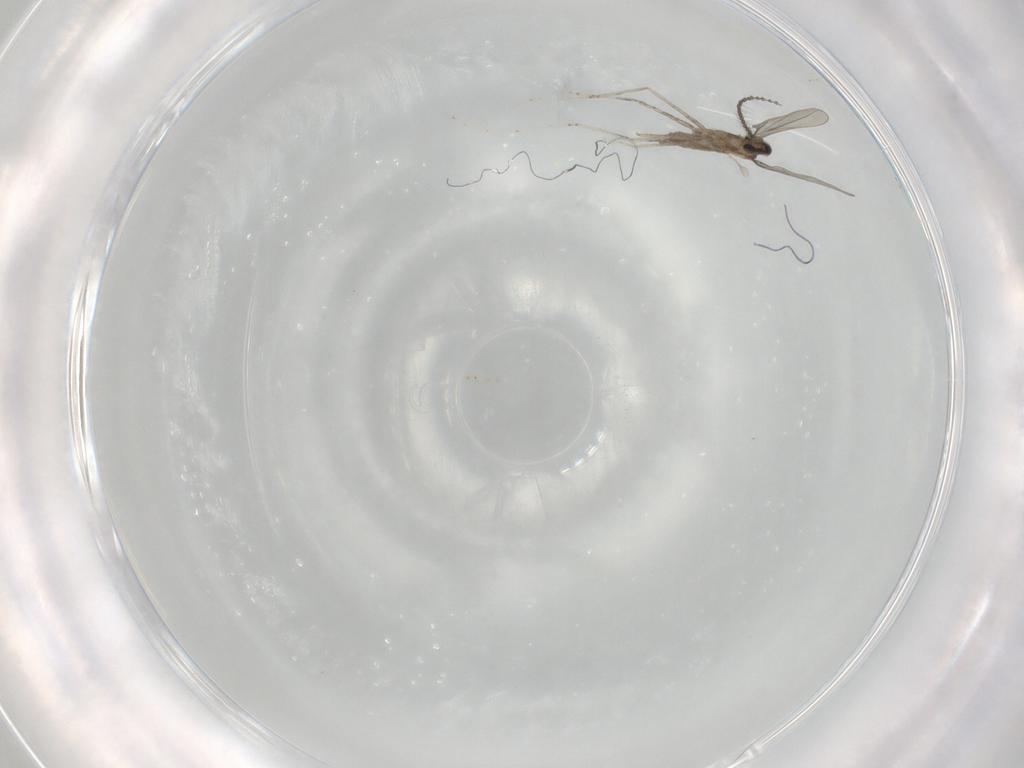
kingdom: Animalia
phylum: Arthropoda
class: Insecta
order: Diptera
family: Cecidomyiidae
